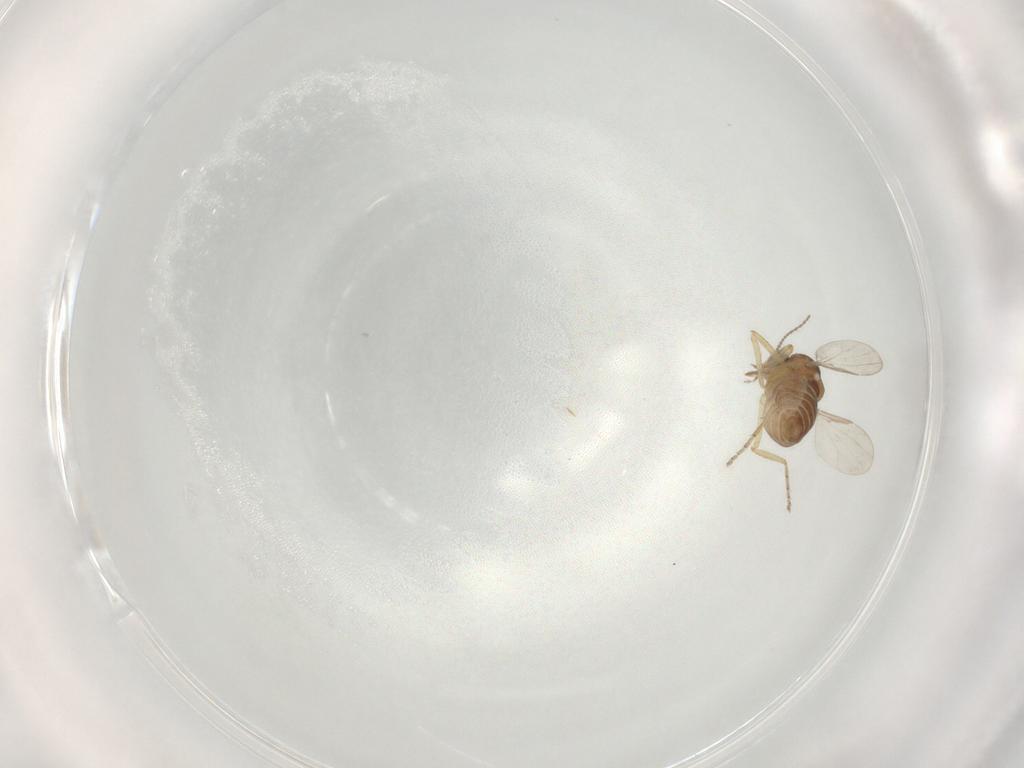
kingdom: Animalia
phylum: Arthropoda
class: Insecta
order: Diptera
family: Ceratopogonidae
